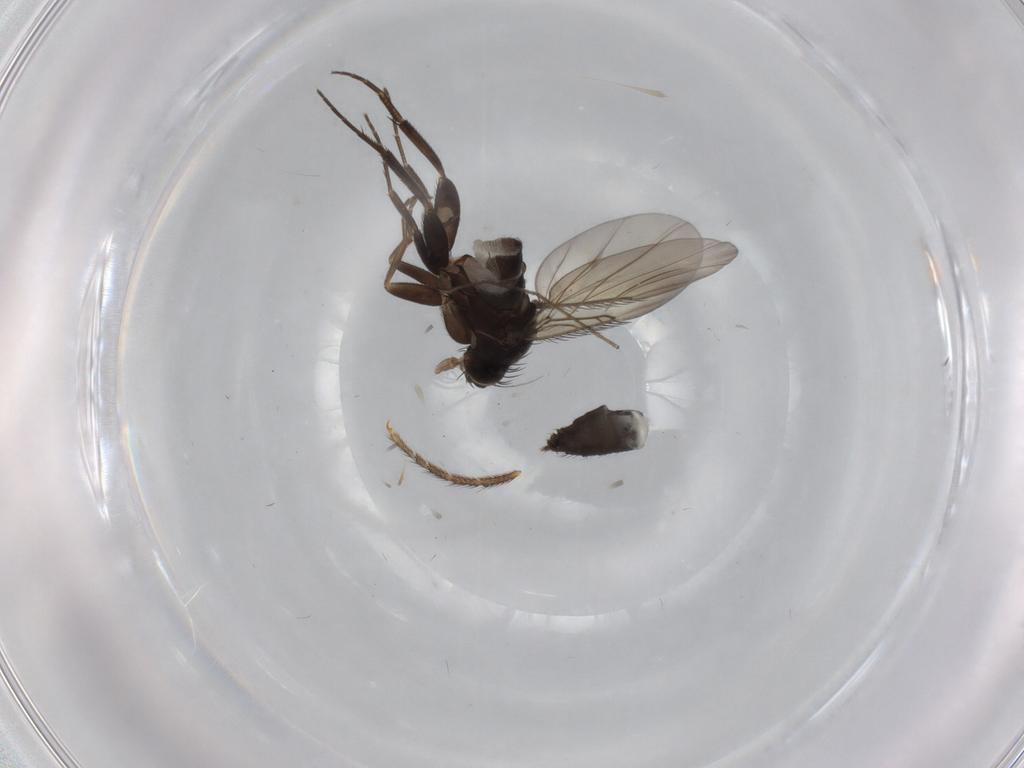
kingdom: Animalia
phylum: Arthropoda
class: Insecta
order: Diptera
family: Phoridae
